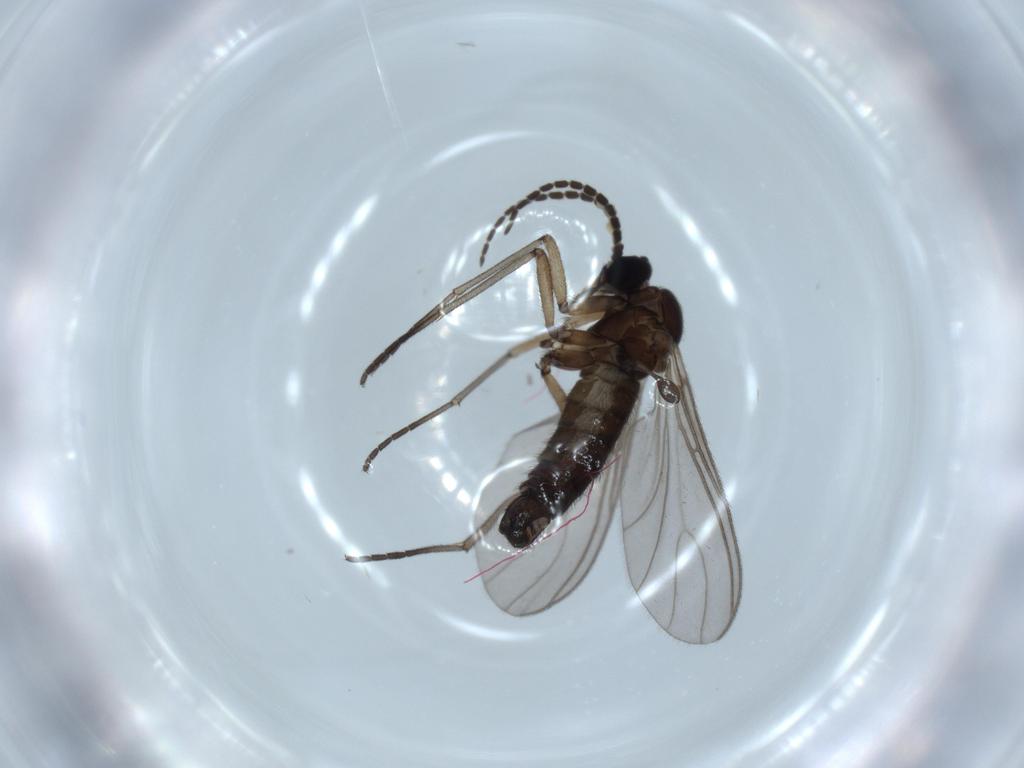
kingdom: Animalia
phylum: Arthropoda
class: Insecta
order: Diptera
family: Sciaridae
